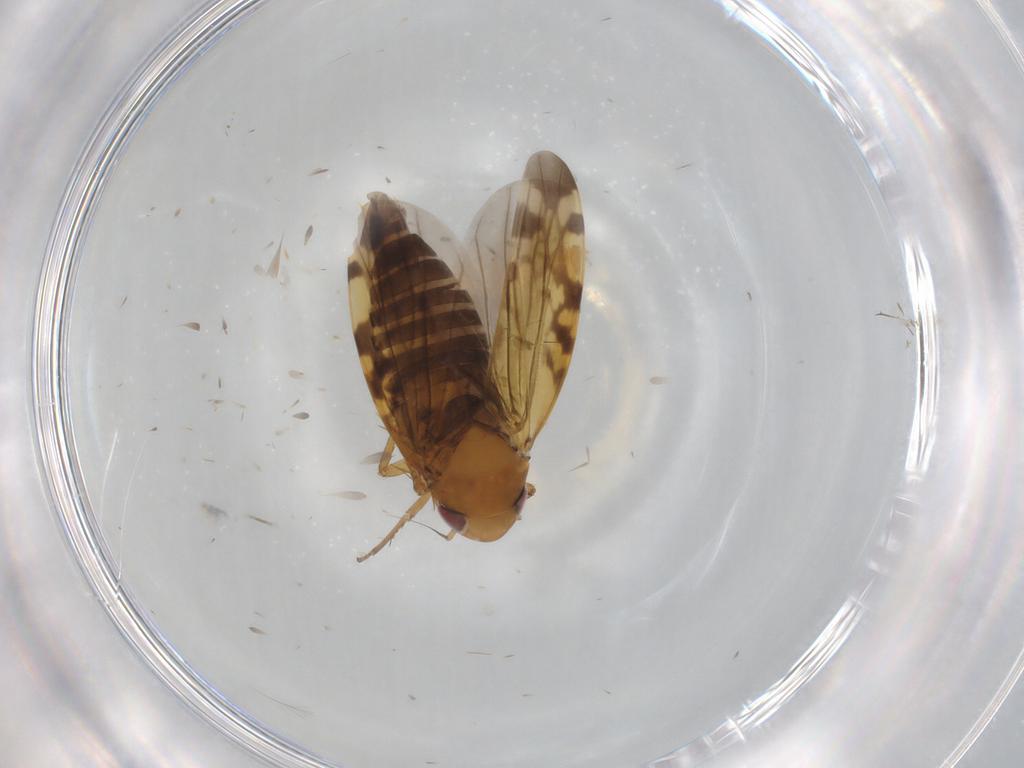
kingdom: Animalia
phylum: Arthropoda
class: Insecta
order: Hemiptera
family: Cicadellidae
